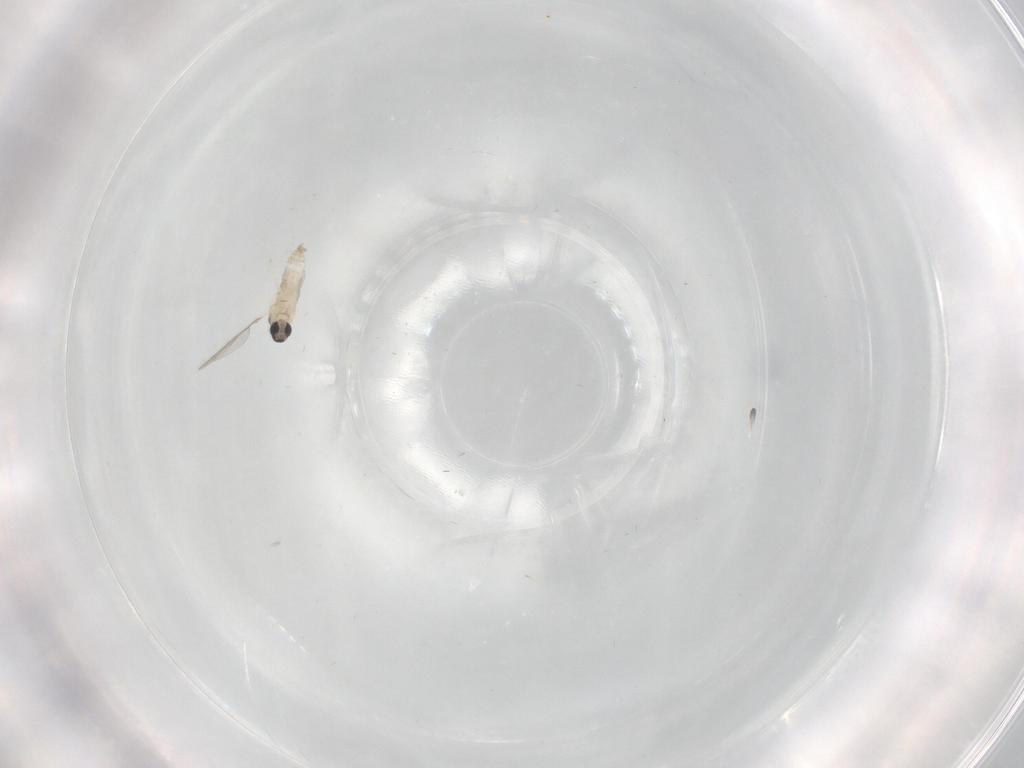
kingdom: Animalia
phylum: Arthropoda
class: Insecta
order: Diptera
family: Cecidomyiidae
